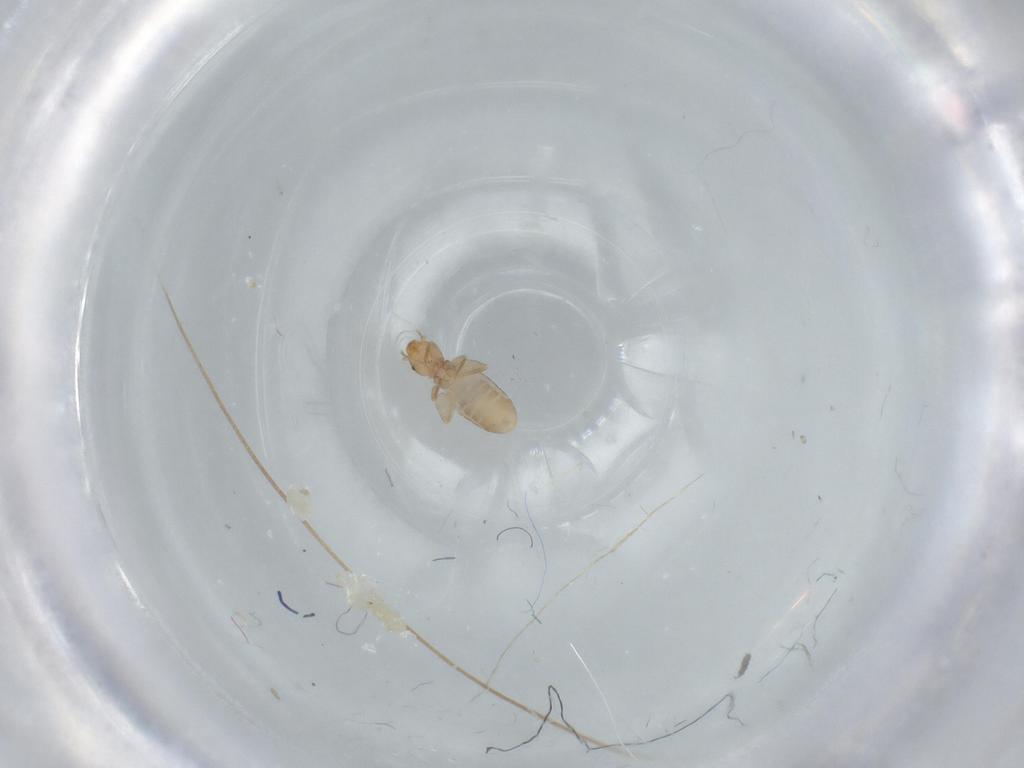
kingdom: Animalia
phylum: Arthropoda
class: Insecta
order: Psocodea
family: Liposcelididae
